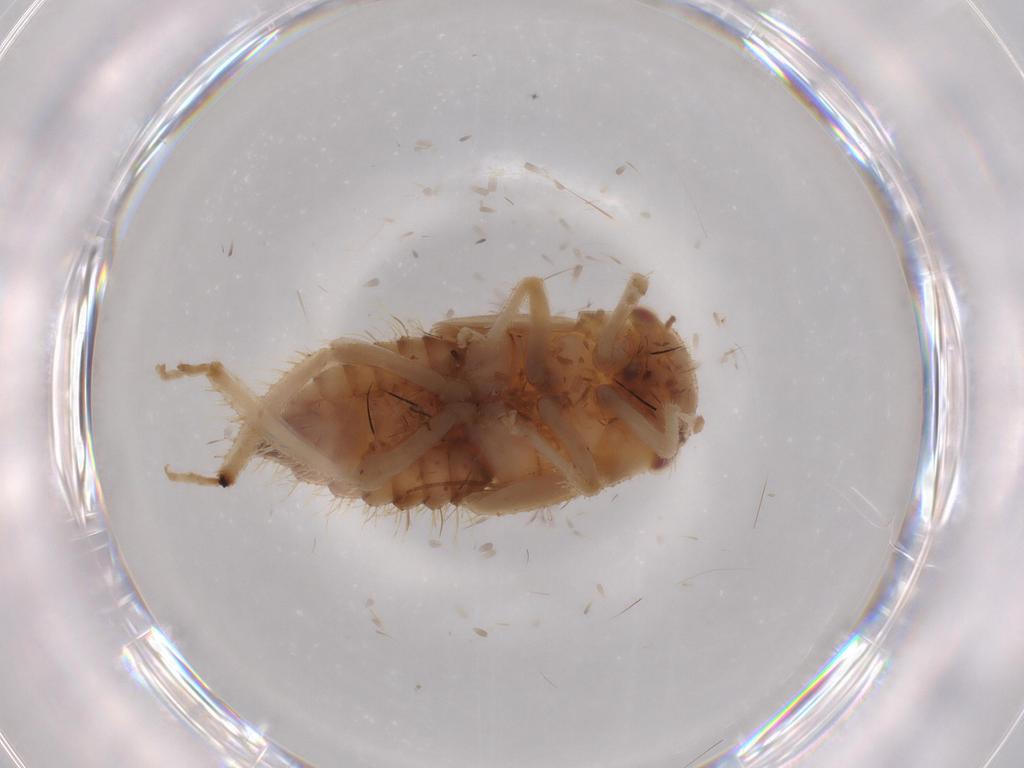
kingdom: Animalia
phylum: Arthropoda
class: Insecta
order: Hemiptera
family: Cicadellidae
